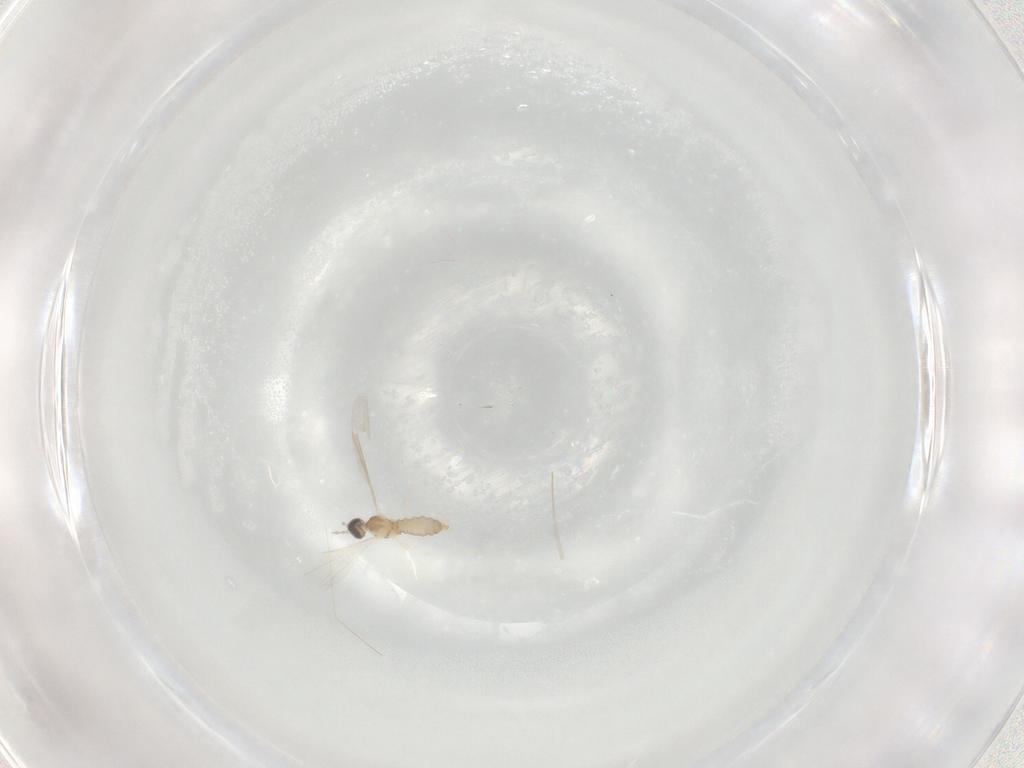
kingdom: Animalia
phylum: Arthropoda
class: Insecta
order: Diptera
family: Cecidomyiidae
